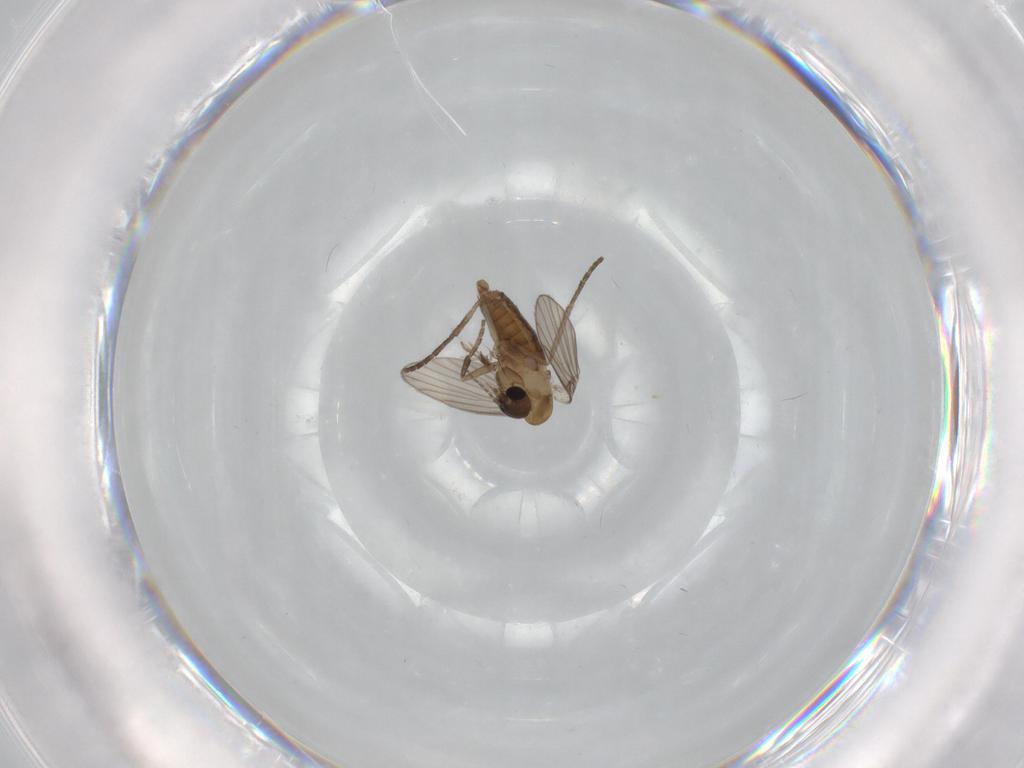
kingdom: Animalia
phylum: Arthropoda
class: Insecta
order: Diptera
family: Psychodidae
